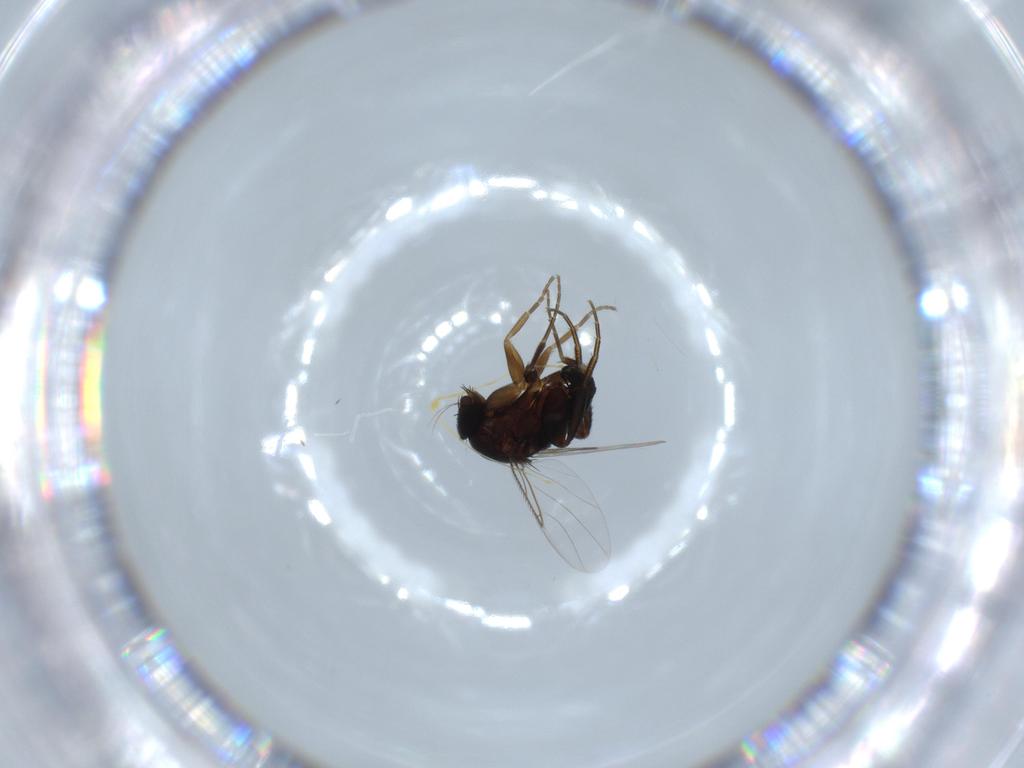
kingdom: Animalia
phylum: Arthropoda
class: Insecta
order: Diptera
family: Phoridae
